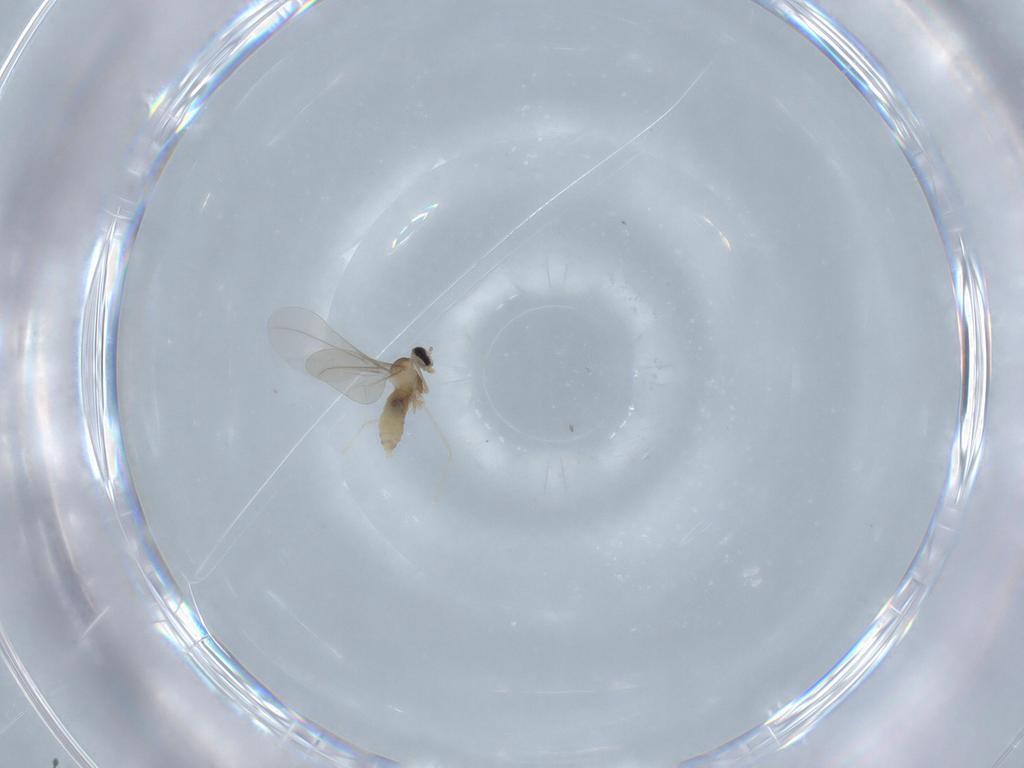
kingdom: Animalia
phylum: Arthropoda
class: Insecta
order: Diptera
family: Cecidomyiidae
